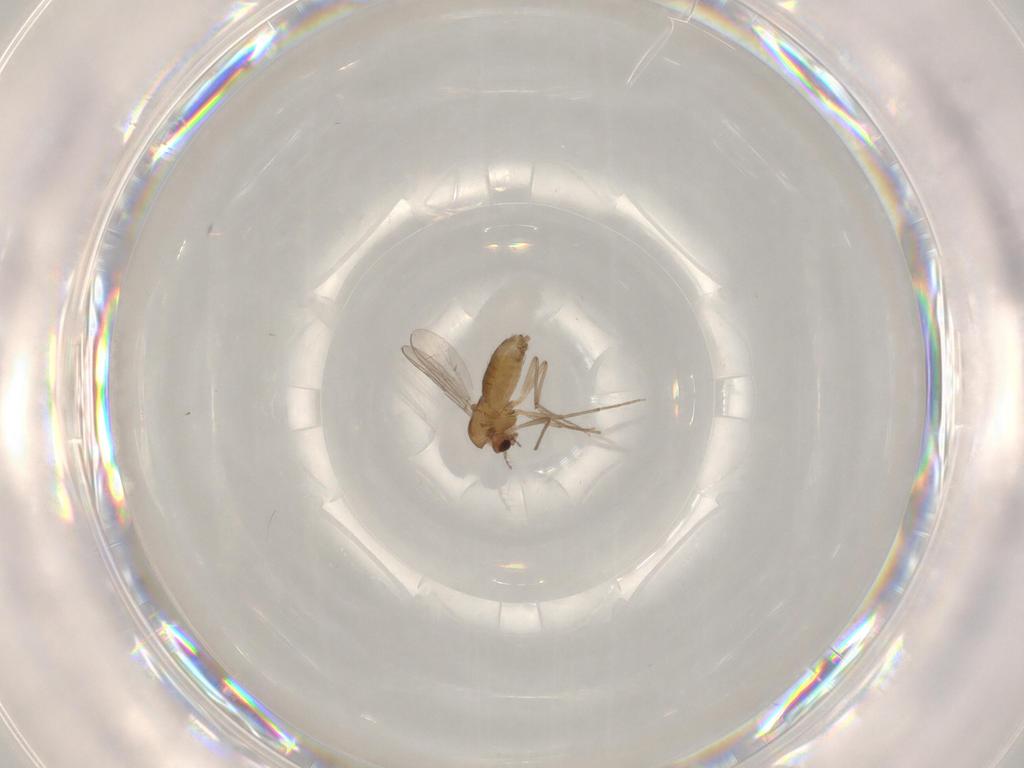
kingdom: Animalia
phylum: Arthropoda
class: Insecta
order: Diptera
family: Chironomidae
